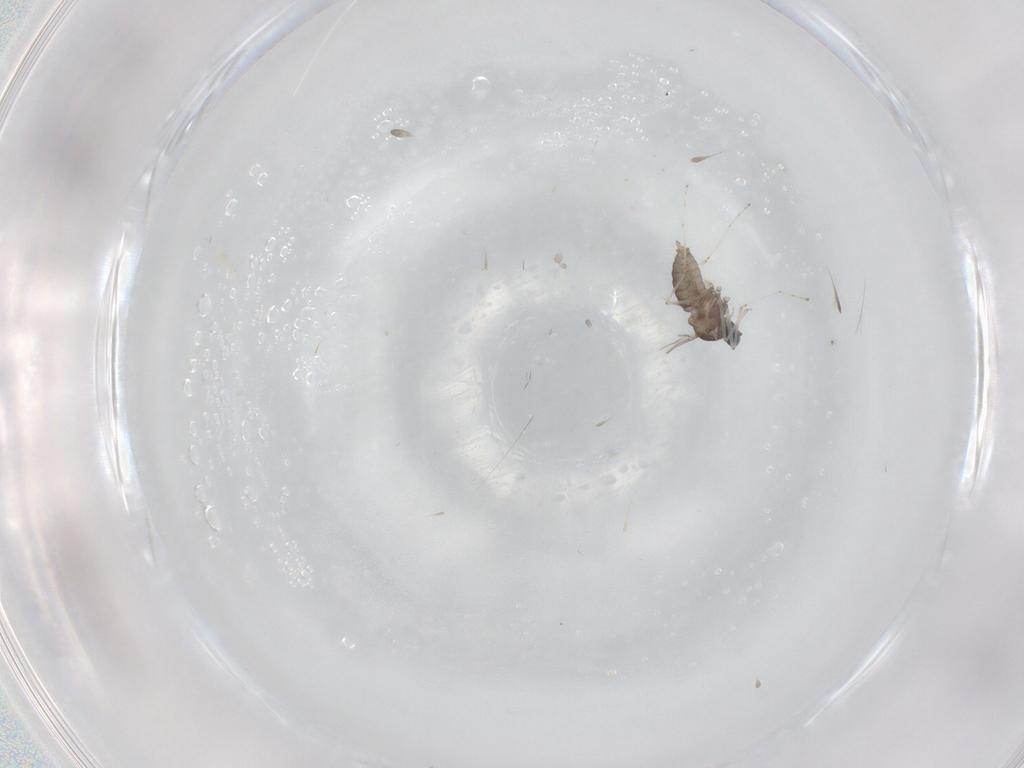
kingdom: Animalia
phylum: Arthropoda
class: Insecta
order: Diptera
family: Cecidomyiidae
